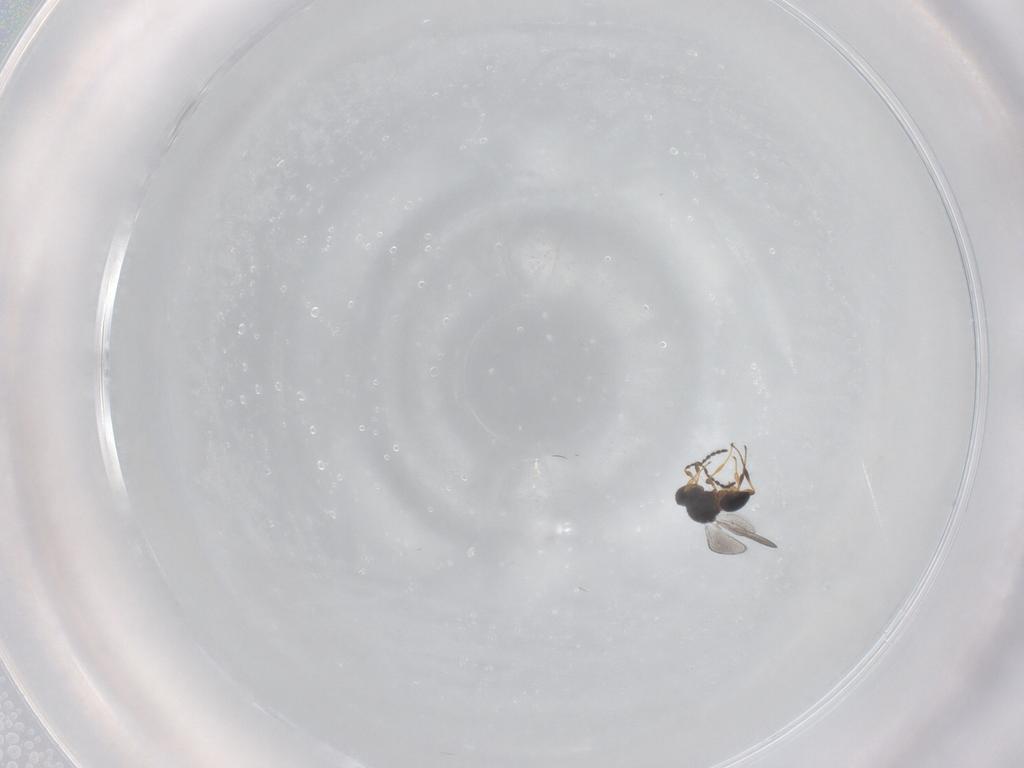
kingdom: Animalia
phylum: Arthropoda
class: Insecta
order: Hymenoptera
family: Platygastridae
